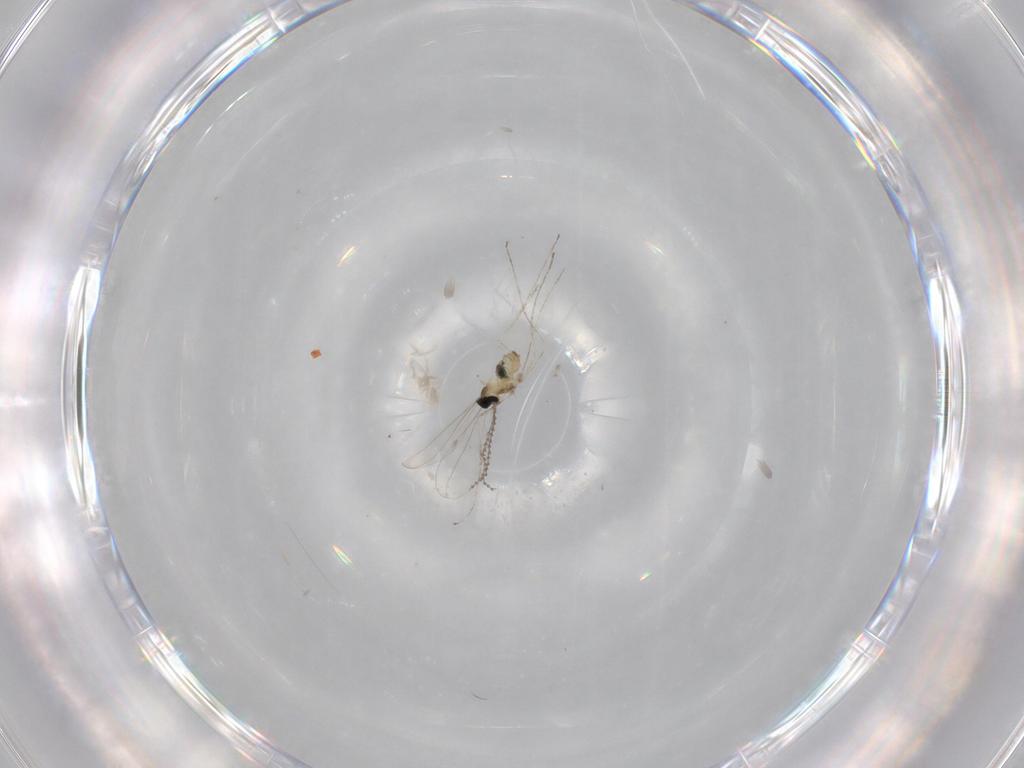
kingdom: Animalia
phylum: Arthropoda
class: Insecta
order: Diptera
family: Cecidomyiidae
